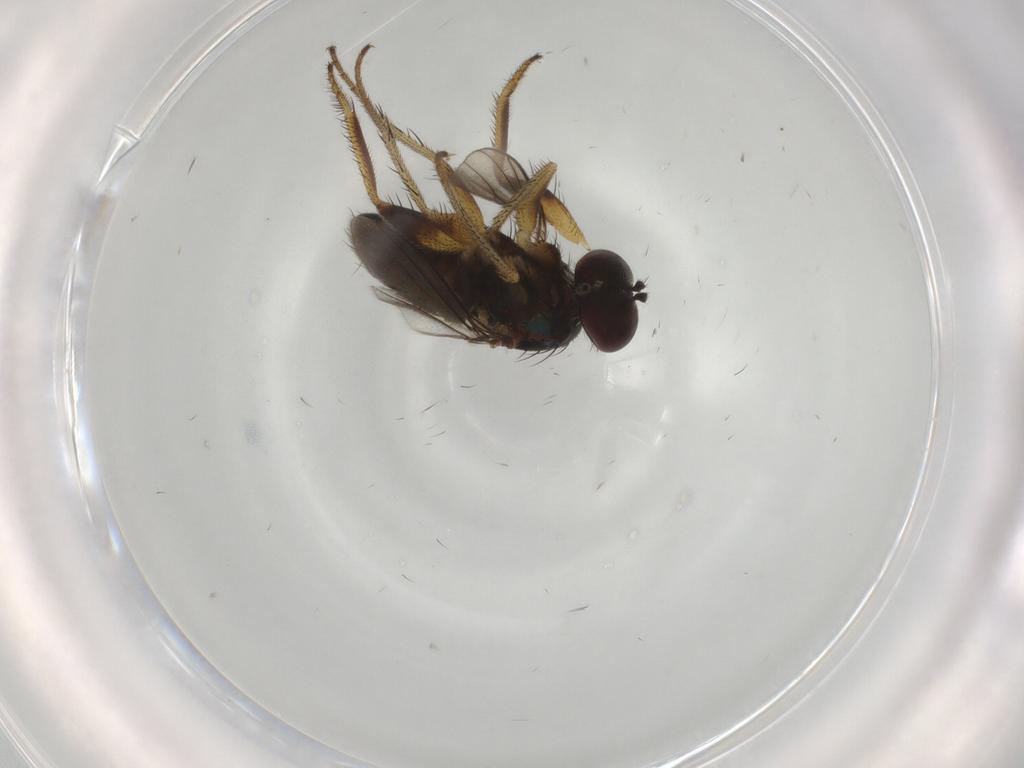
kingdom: Animalia
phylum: Arthropoda
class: Insecta
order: Diptera
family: Dolichopodidae
